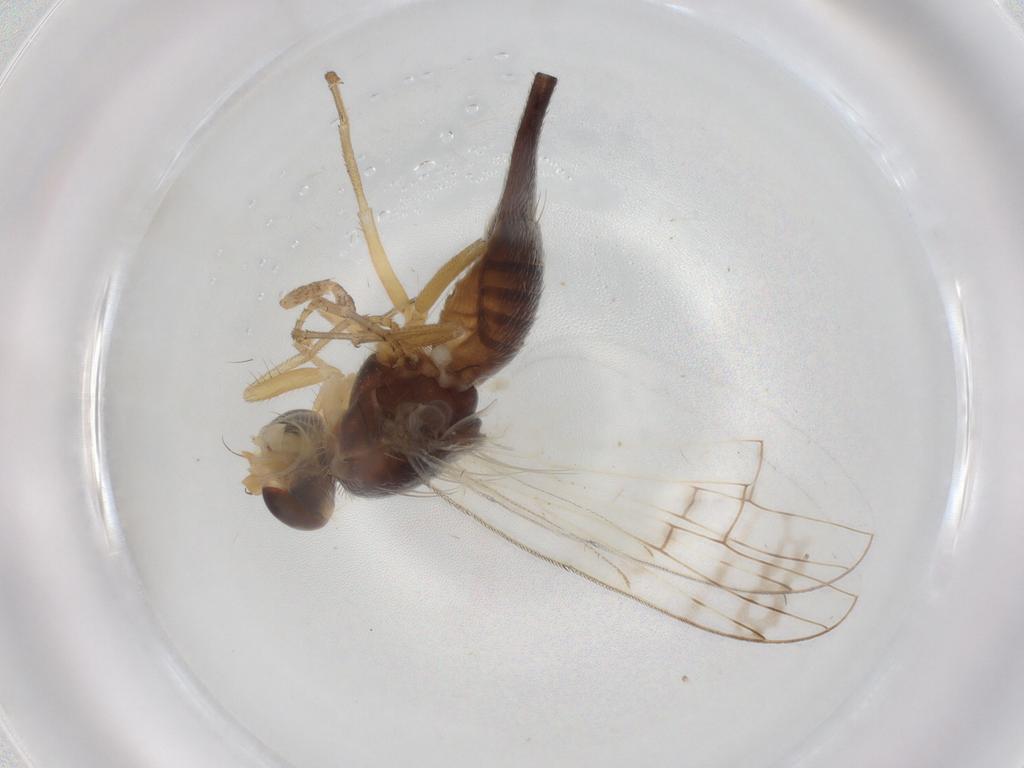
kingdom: Animalia
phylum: Arthropoda
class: Insecta
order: Diptera
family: Tephritidae
